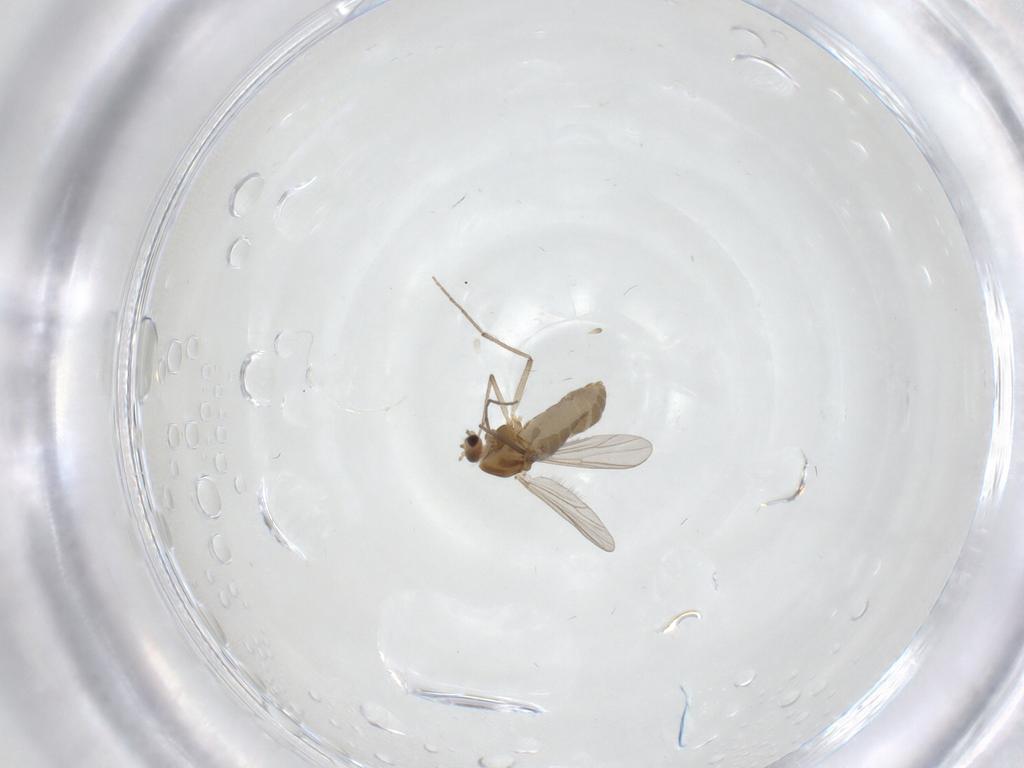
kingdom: Animalia
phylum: Arthropoda
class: Insecta
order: Diptera
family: Chironomidae
